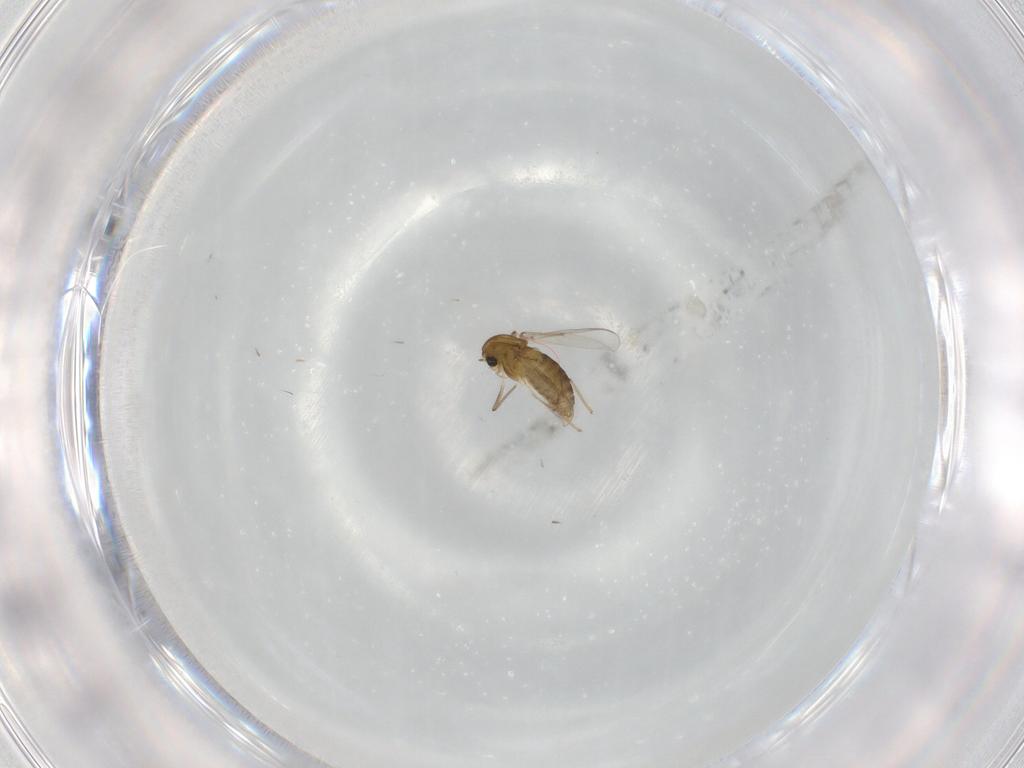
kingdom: Animalia
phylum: Arthropoda
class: Insecta
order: Diptera
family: Chironomidae
